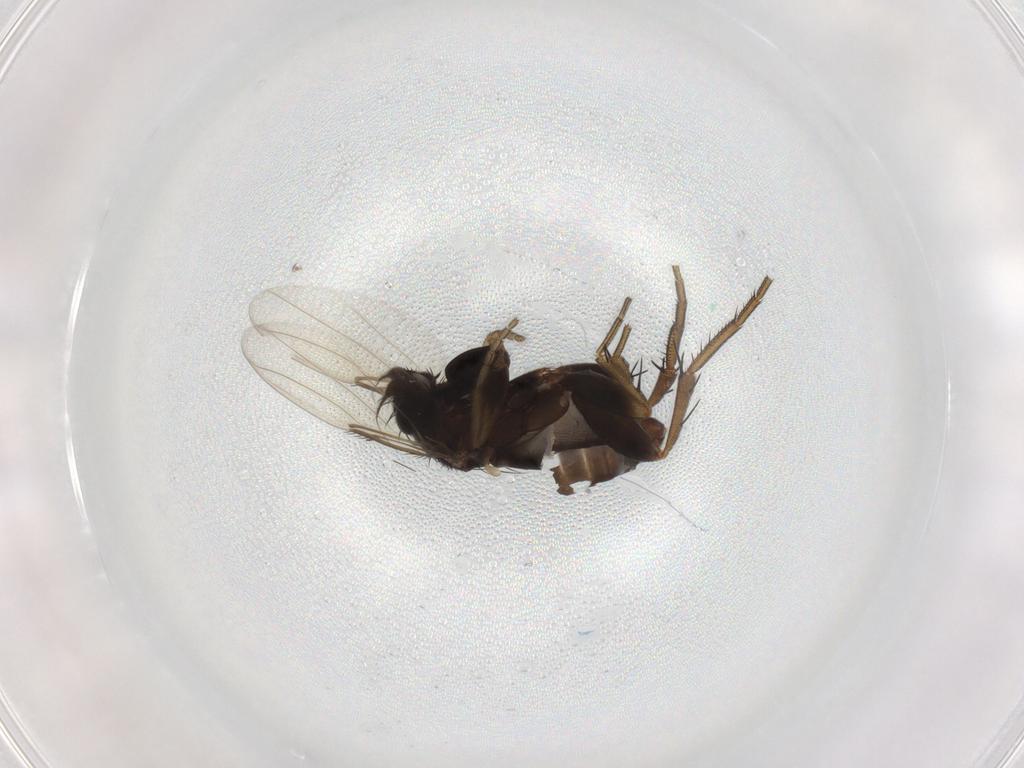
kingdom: Animalia
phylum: Arthropoda
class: Insecta
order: Diptera
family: Phoridae
